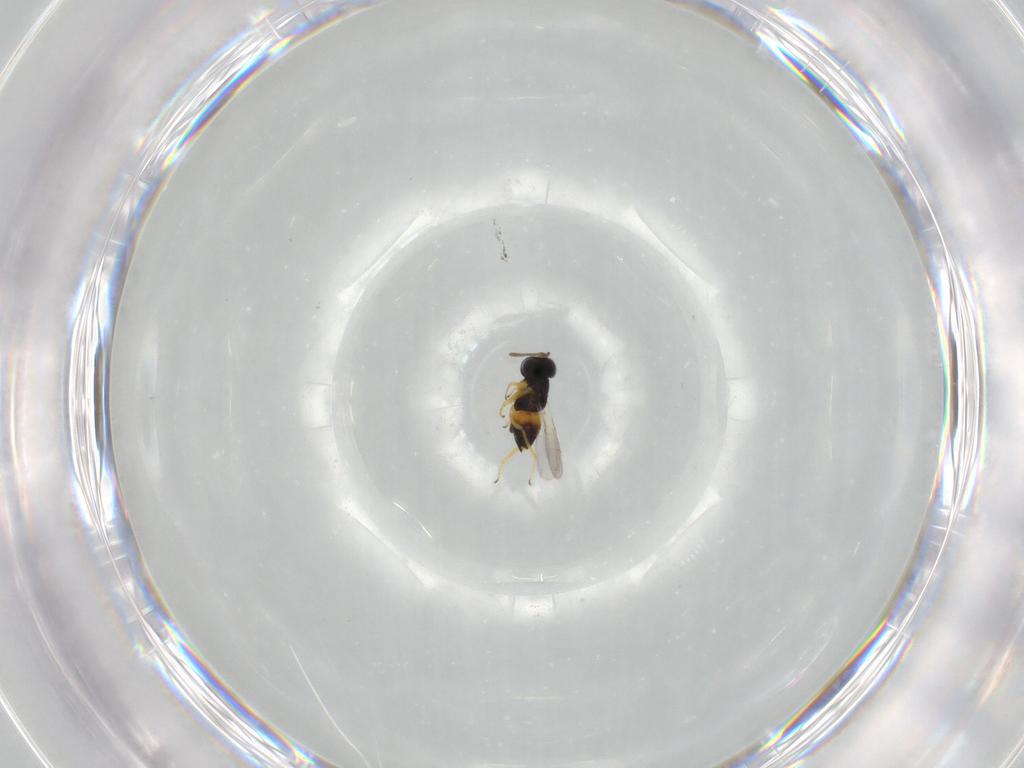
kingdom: Animalia
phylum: Arthropoda
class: Insecta
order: Hymenoptera
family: Encyrtidae
